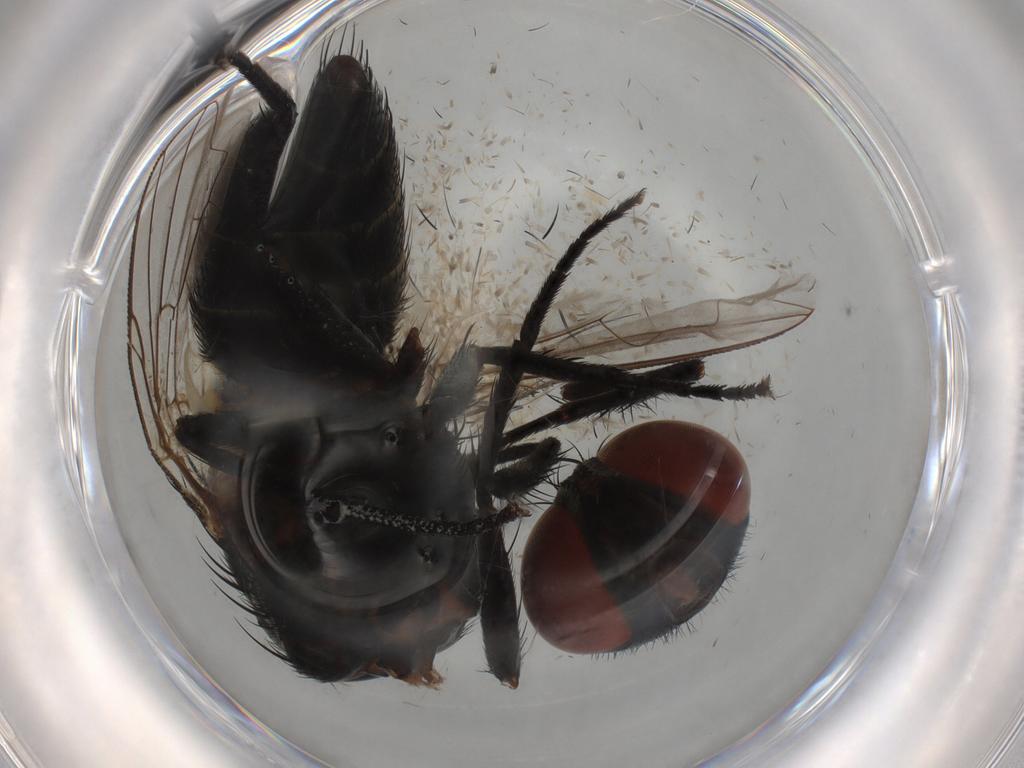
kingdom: Animalia
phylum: Arthropoda
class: Insecta
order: Diptera
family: Sarcophagidae
